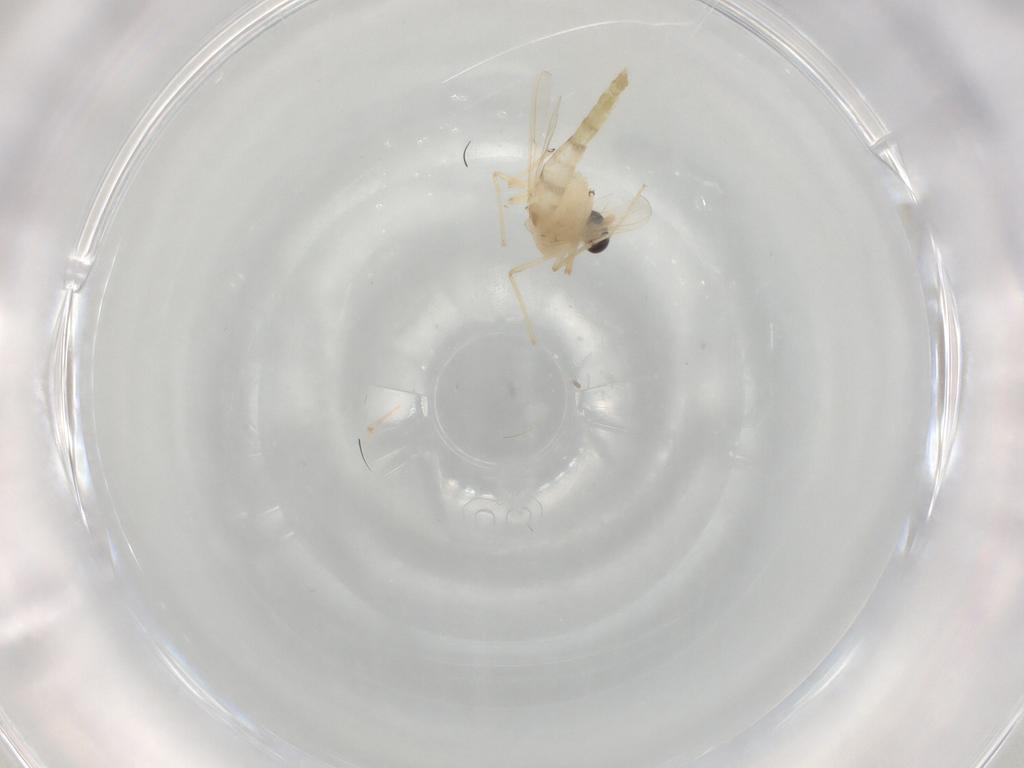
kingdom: Animalia
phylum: Arthropoda
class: Insecta
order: Diptera
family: Chironomidae
